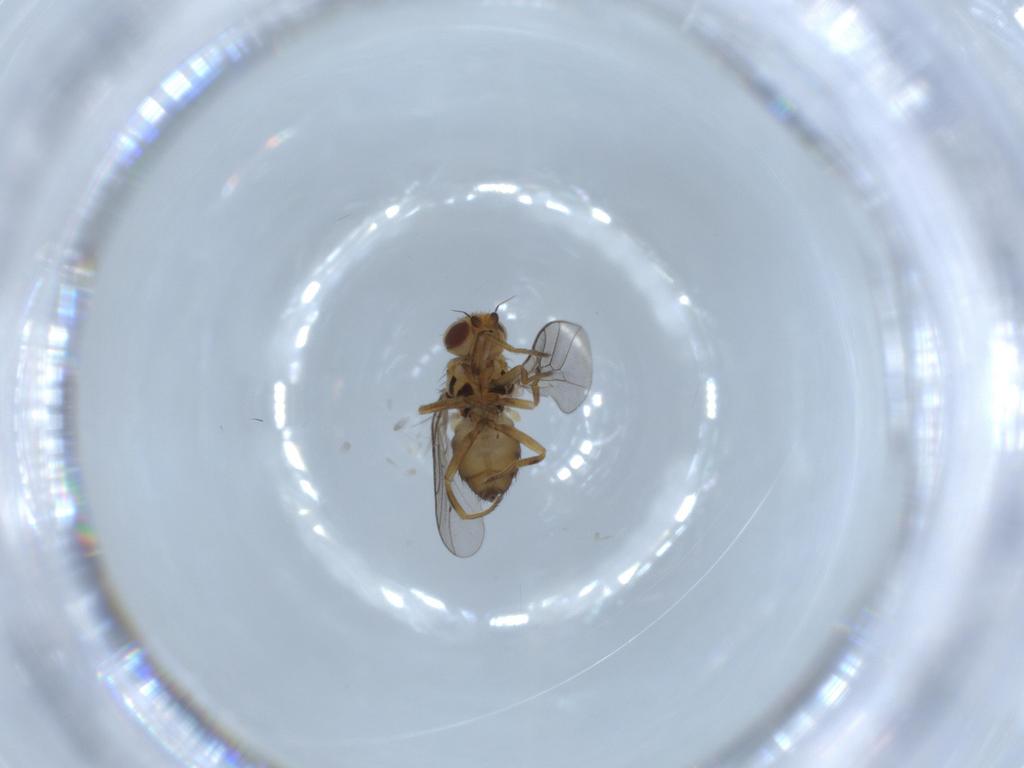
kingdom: Animalia
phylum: Arthropoda
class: Insecta
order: Diptera
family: Chloropidae
